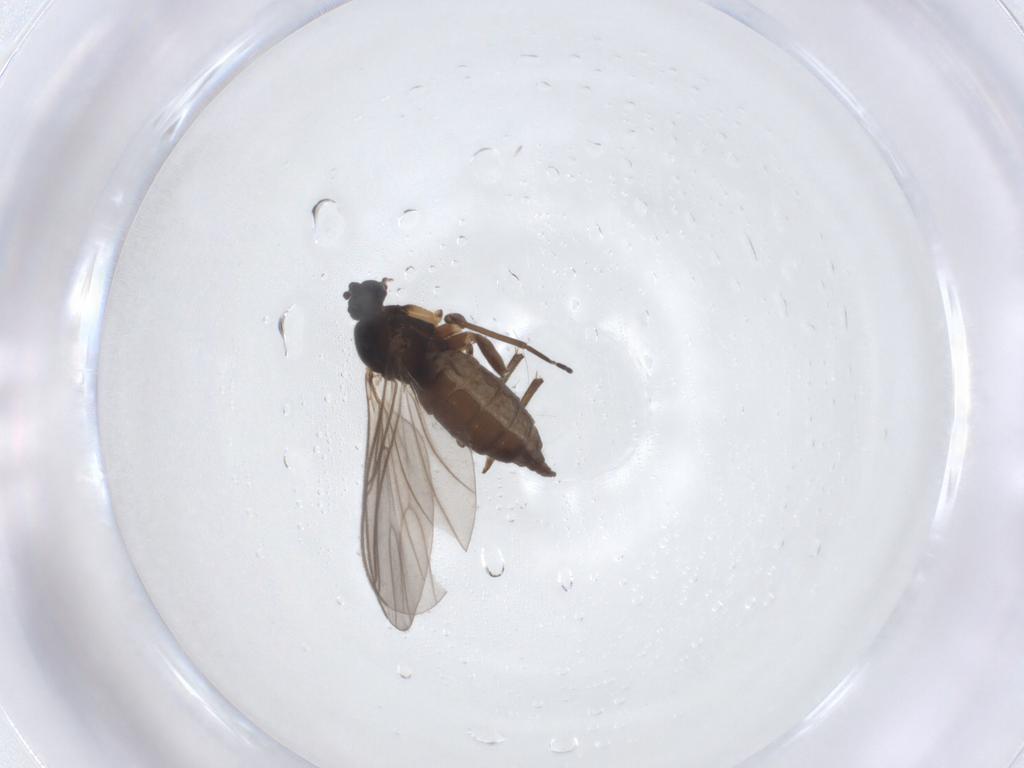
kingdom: Animalia
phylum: Arthropoda
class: Insecta
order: Diptera
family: Sciaridae
